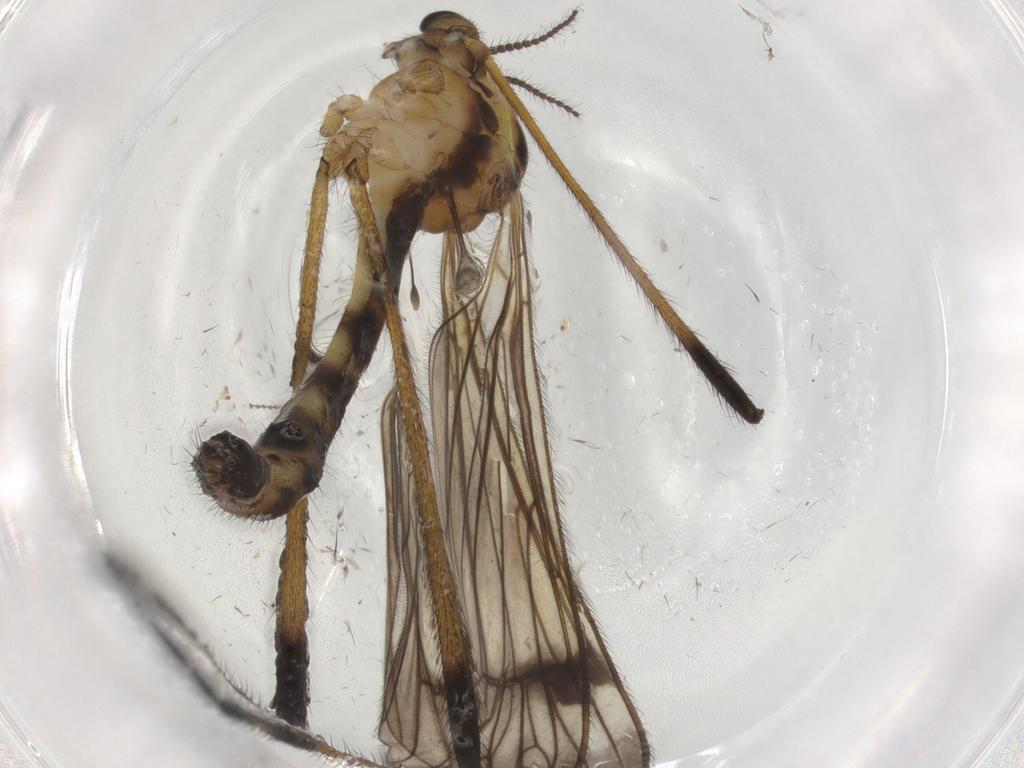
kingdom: Animalia
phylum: Arthropoda
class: Insecta
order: Diptera
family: Limoniidae
